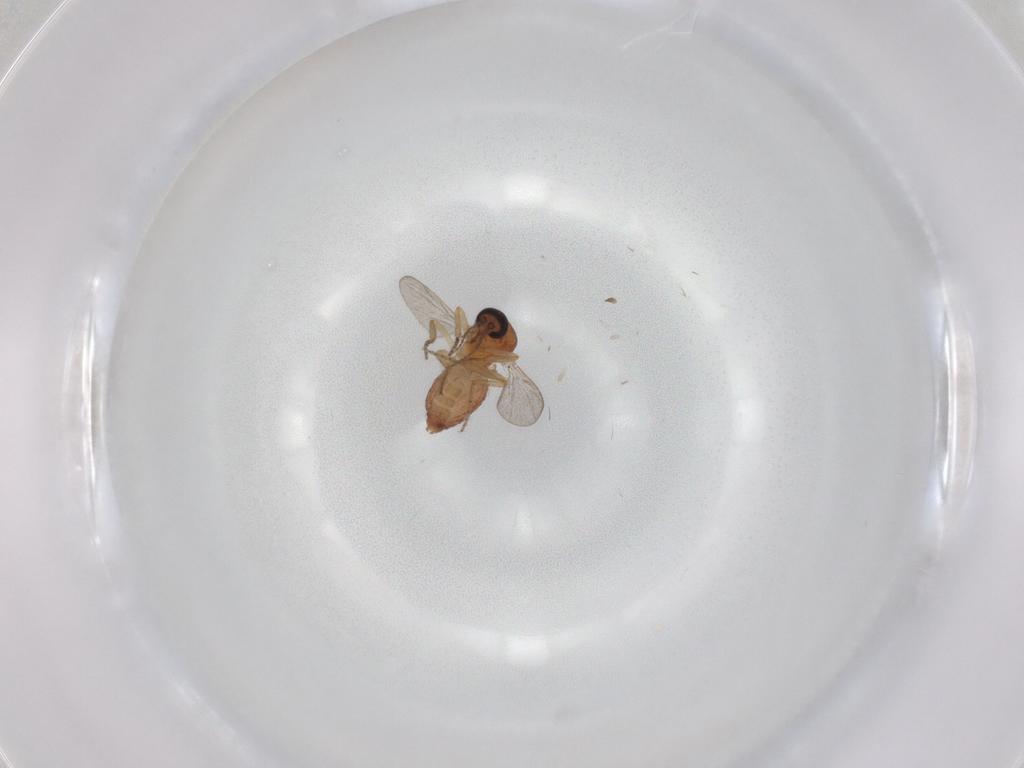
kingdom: Animalia
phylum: Arthropoda
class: Insecta
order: Diptera
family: Ceratopogonidae
